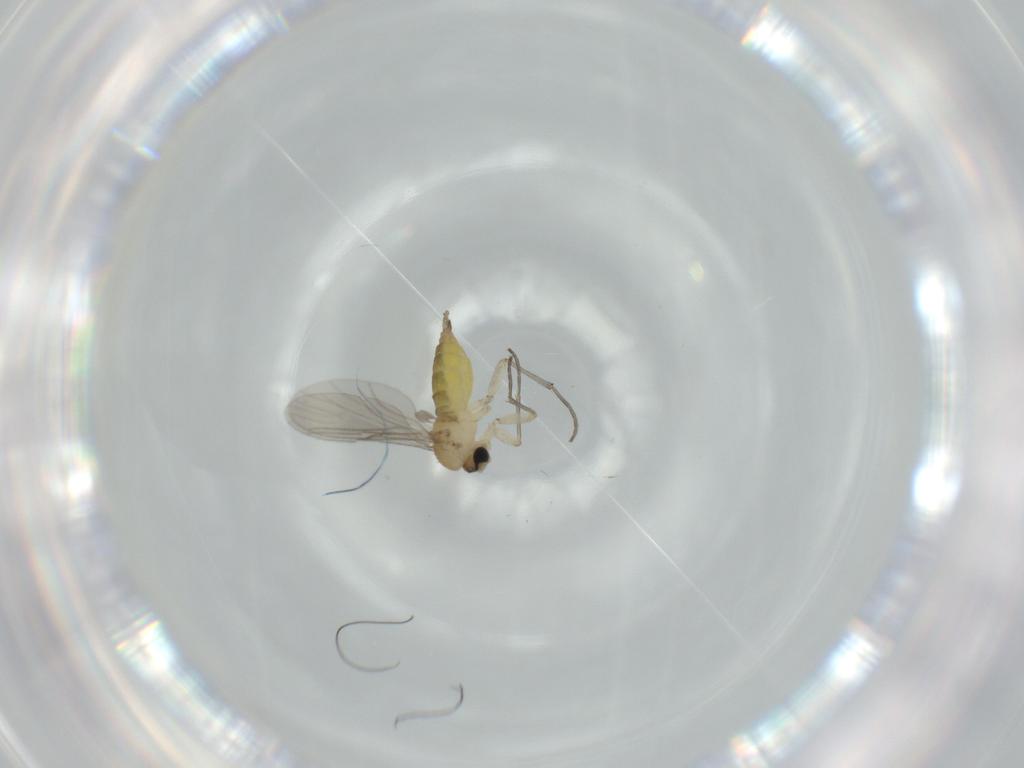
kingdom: Animalia
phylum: Arthropoda
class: Insecta
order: Diptera
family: Sciaridae
